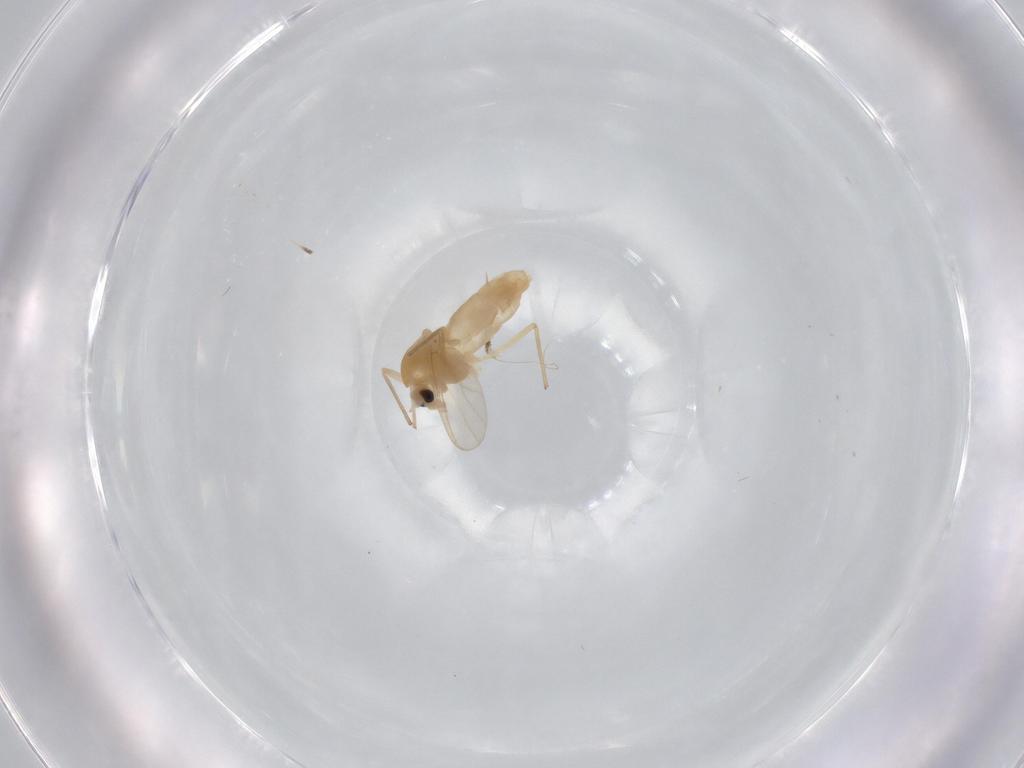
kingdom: Animalia
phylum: Arthropoda
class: Insecta
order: Diptera
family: Chironomidae
